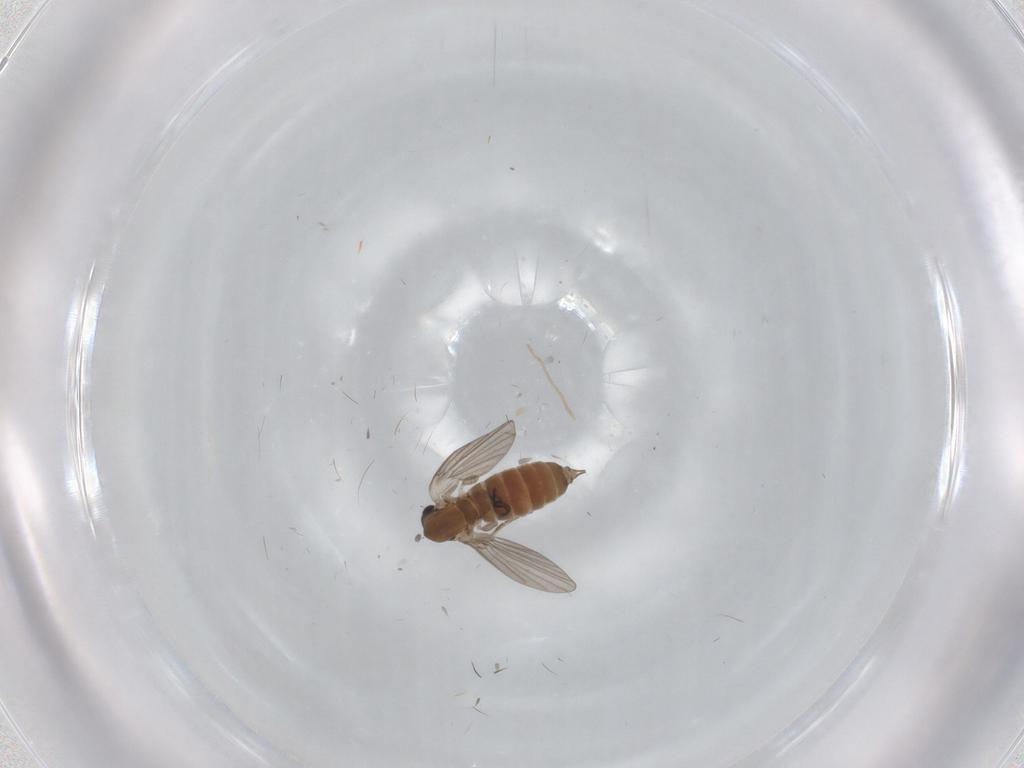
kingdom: Animalia
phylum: Arthropoda
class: Insecta
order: Diptera
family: Cecidomyiidae
